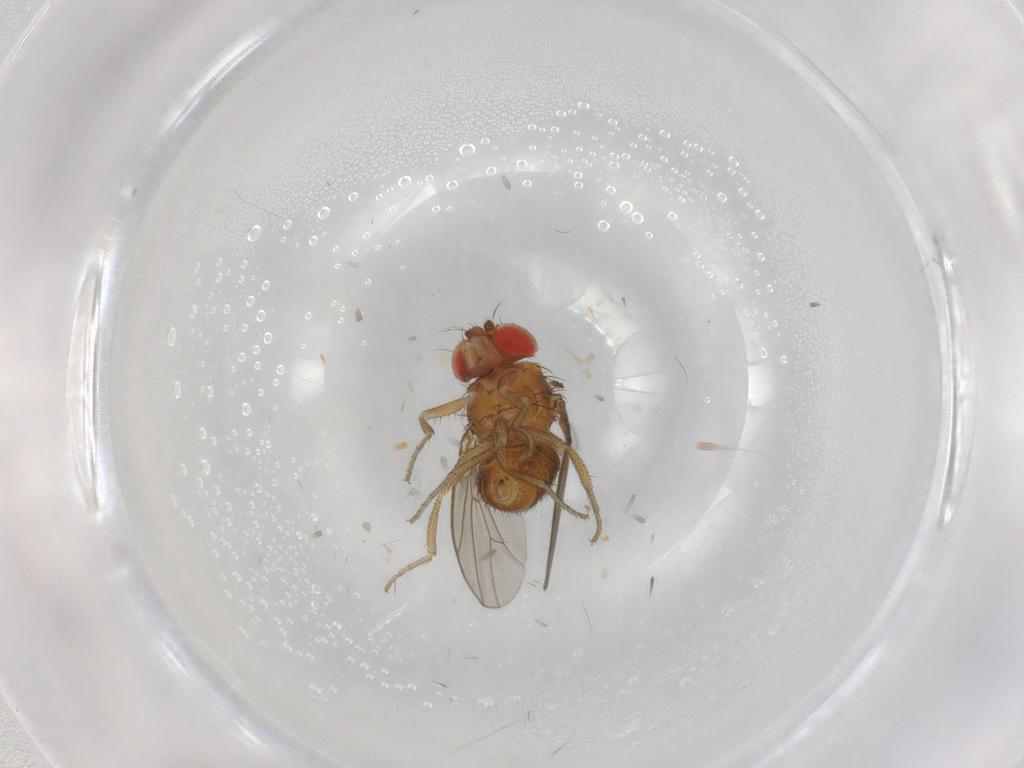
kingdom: Animalia
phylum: Arthropoda
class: Insecta
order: Diptera
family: Drosophilidae
